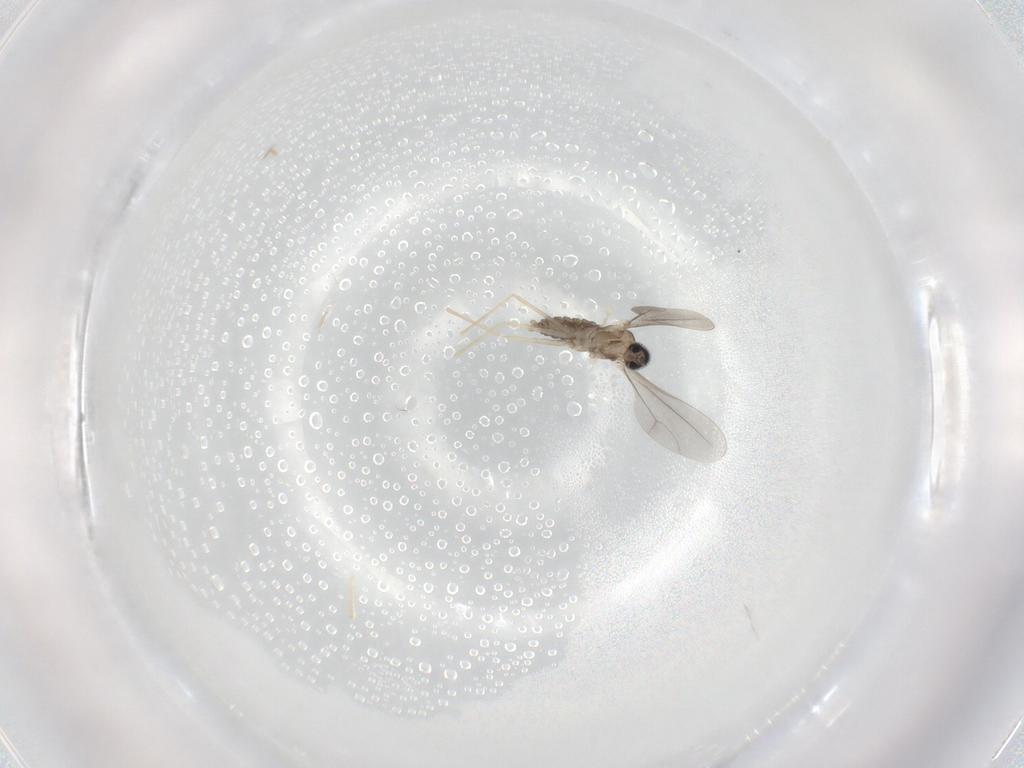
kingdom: Animalia
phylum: Arthropoda
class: Insecta
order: Diptera
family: Cecidomyiidae
